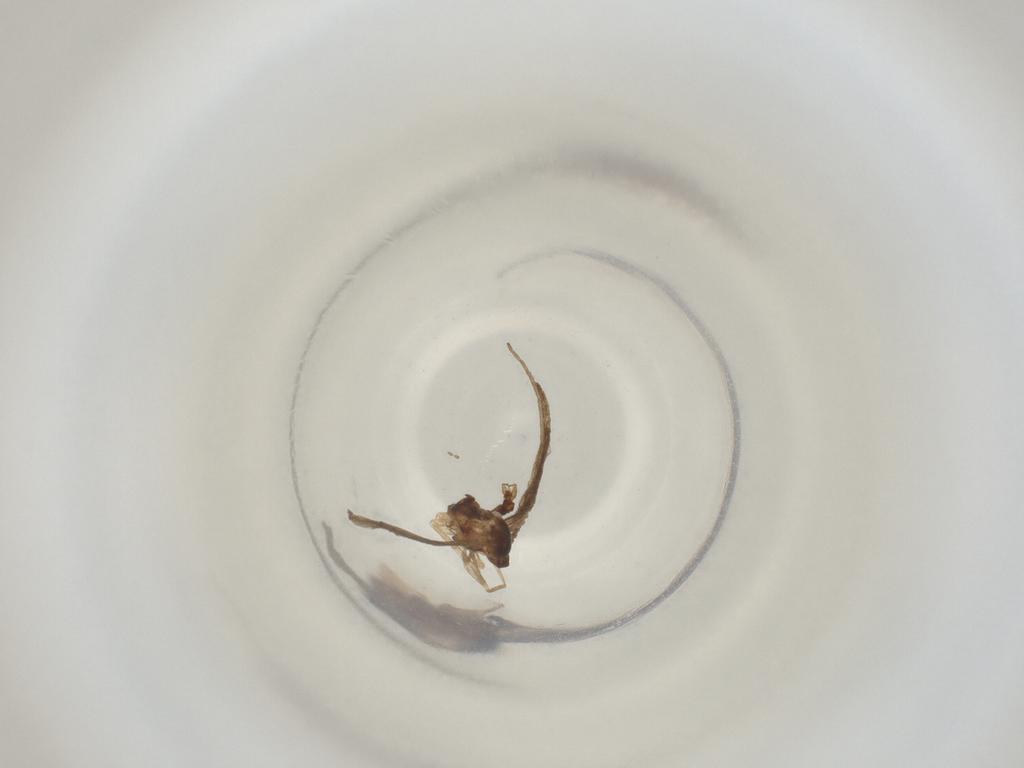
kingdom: Animalia
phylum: Arthropoda
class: Insecta
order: Diptera
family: Cecidomyiidae
